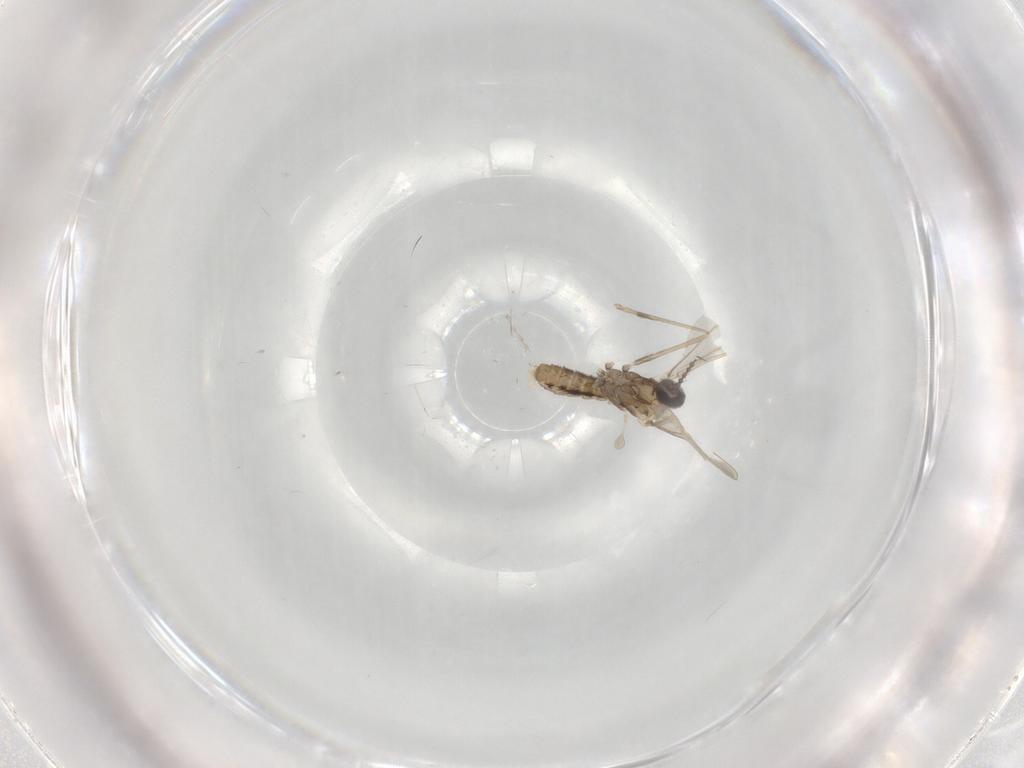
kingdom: Animalia
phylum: Arthropoda
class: Insecta
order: Diptera
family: Cecidomyiidae
